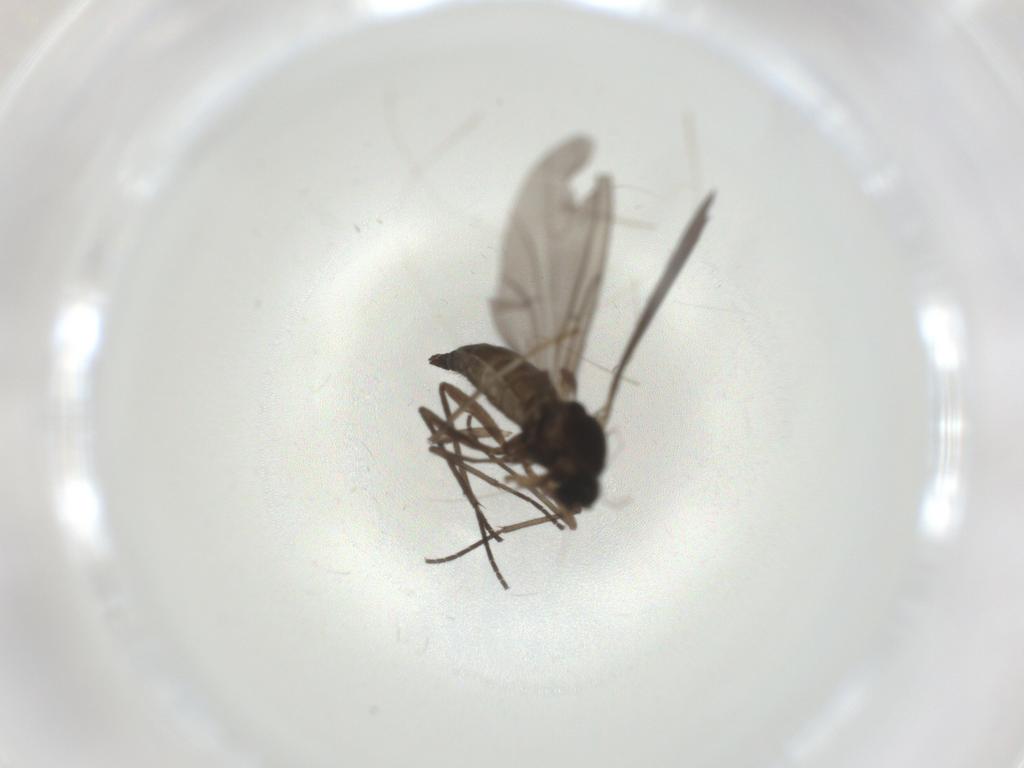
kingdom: Animalia
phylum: Arthropoda
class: Insecta
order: Diptera
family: Sciaridae
